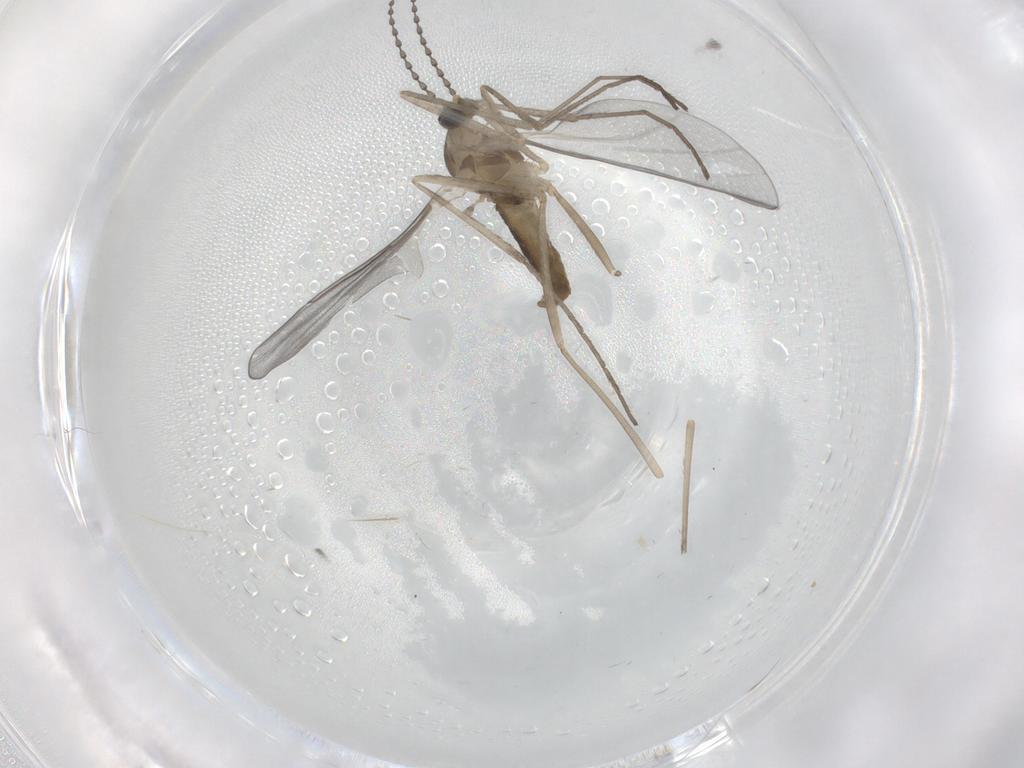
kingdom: Animalia
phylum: Arthropoda
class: Insecta
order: Diptera
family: Cecidomyiidae
